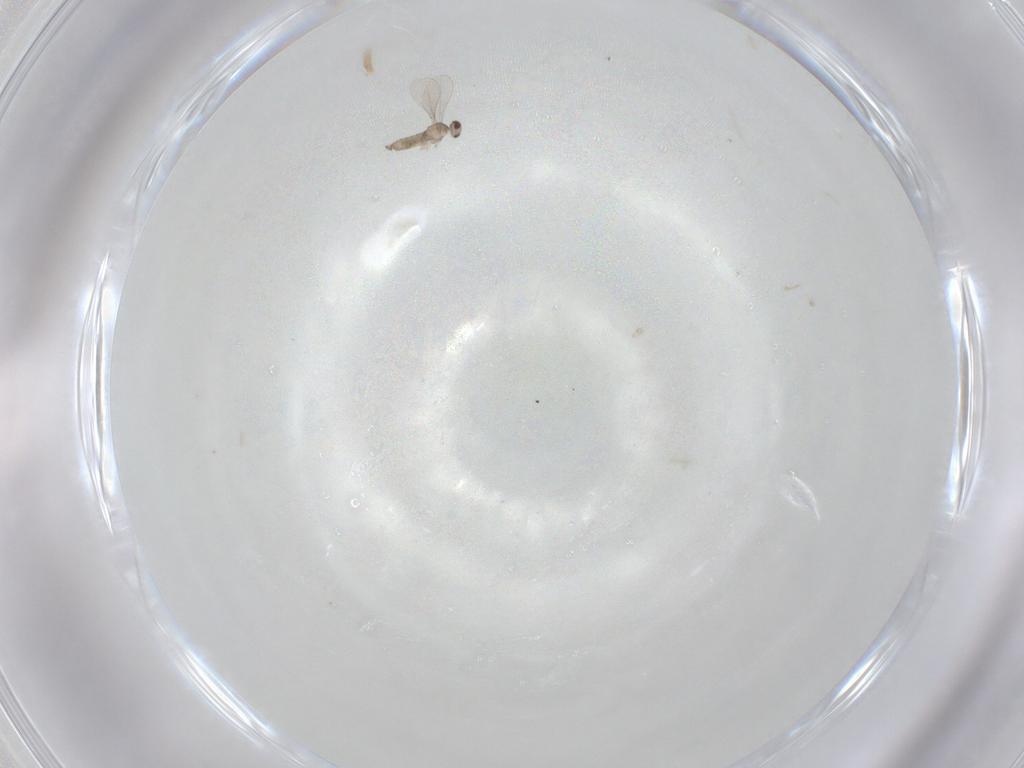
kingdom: Animalia
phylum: Arthropoda
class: Insecta
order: Diptera
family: Cecidomyiidae
